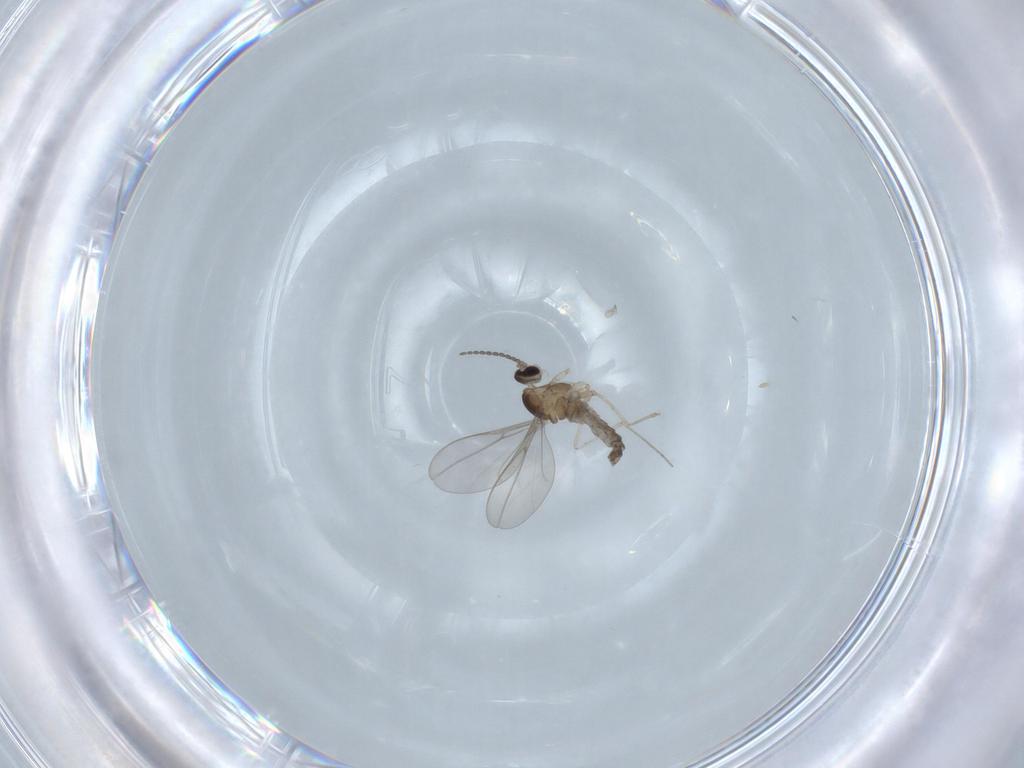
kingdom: Animalia
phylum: Arthropoda
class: Insecta
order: Diptera
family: Cecidomyiidae
